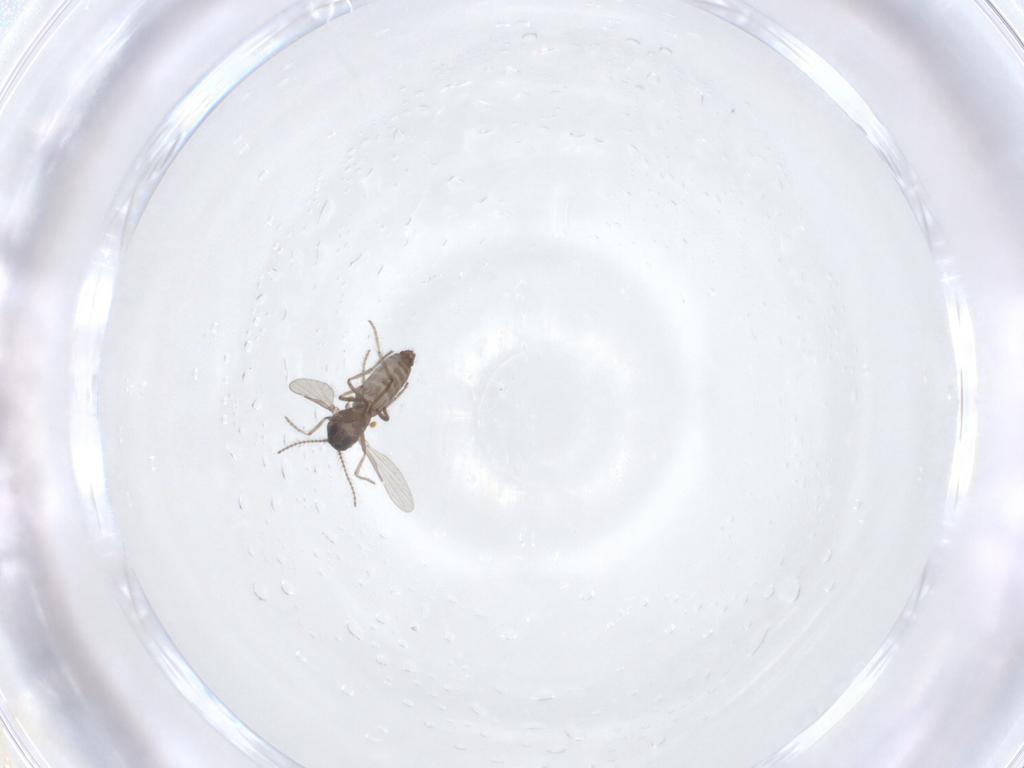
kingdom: Animalia
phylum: Arthropoda
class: Insecta
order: Diptera
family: Ceratopogonidae
